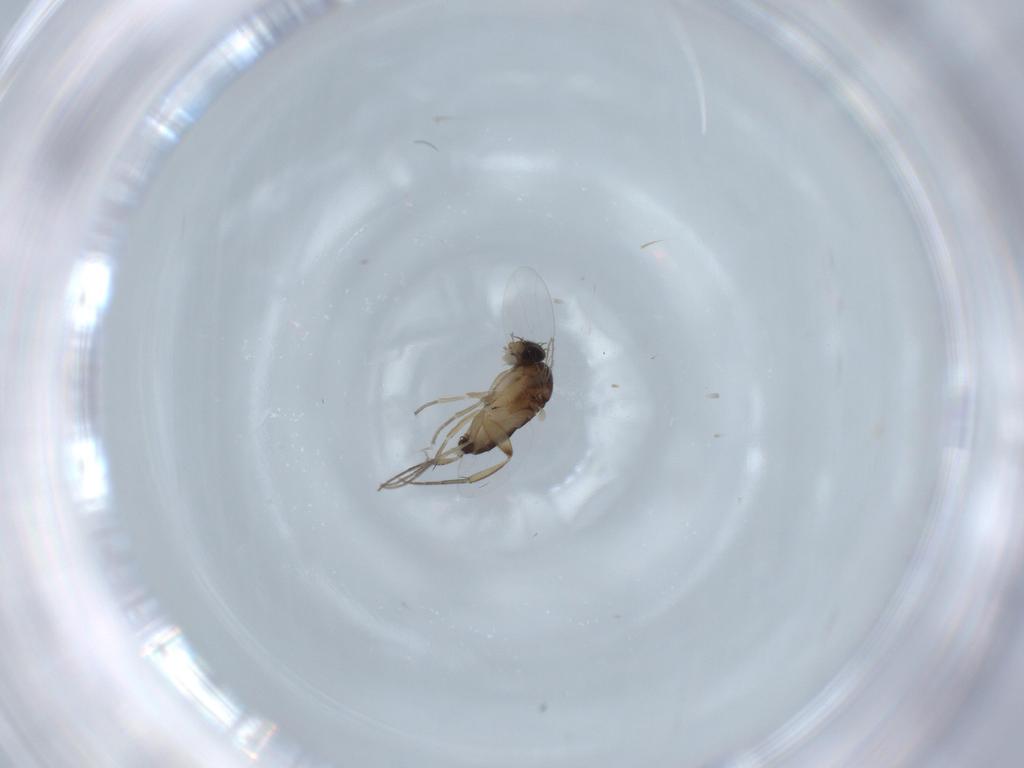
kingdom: Animalia
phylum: Arthropoda
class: Insecta
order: Diptera
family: Phoridae
